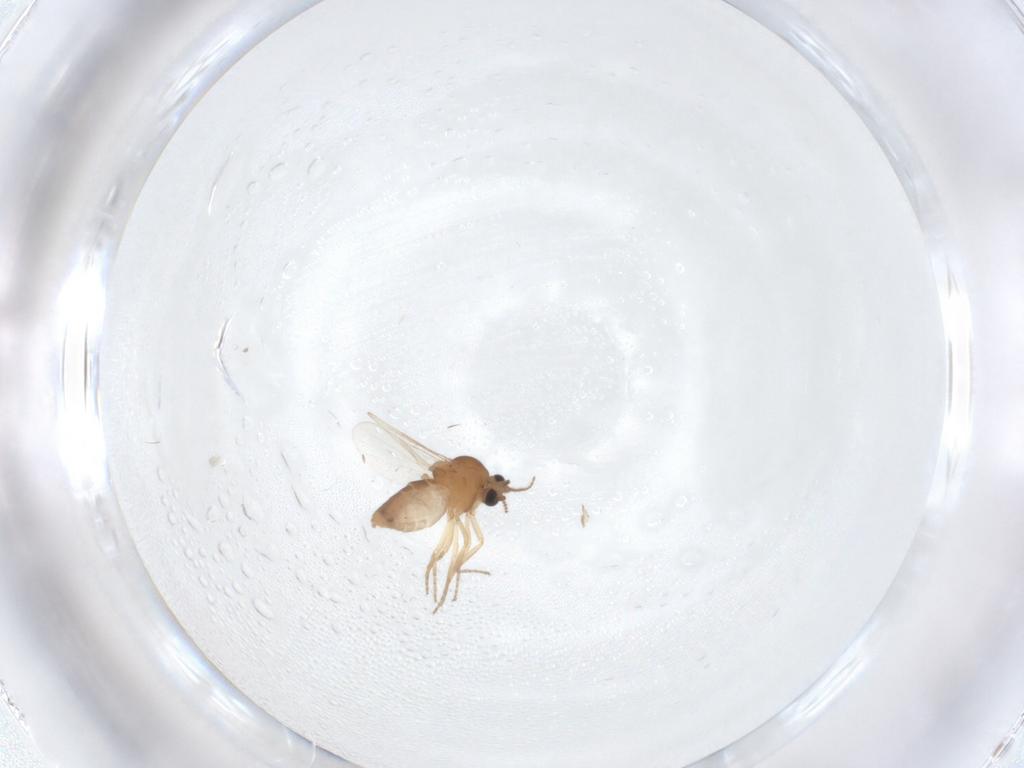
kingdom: Animalia
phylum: Arthropoda
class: Insecta
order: Diptera
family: Ceratopogonidae
